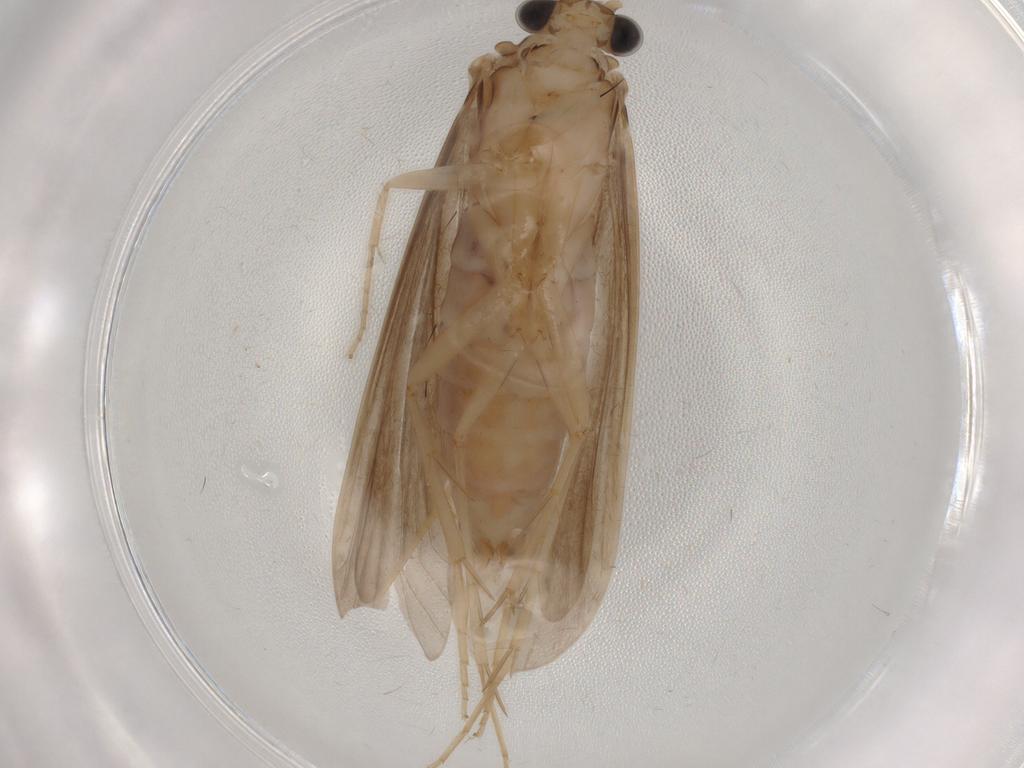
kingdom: Animalia
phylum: Arthropoda
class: Insecta
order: Trichoptera
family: Ecnomidae
